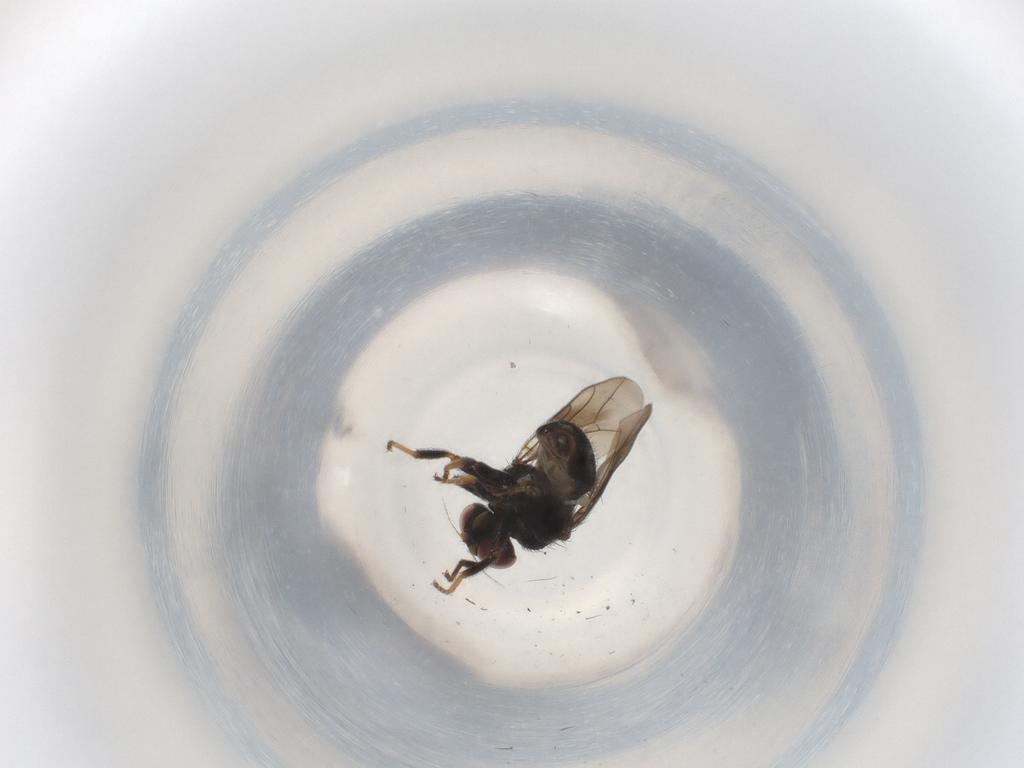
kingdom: Animalia
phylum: Arthropoda
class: Insecta
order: Diptera
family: Chloropidae
